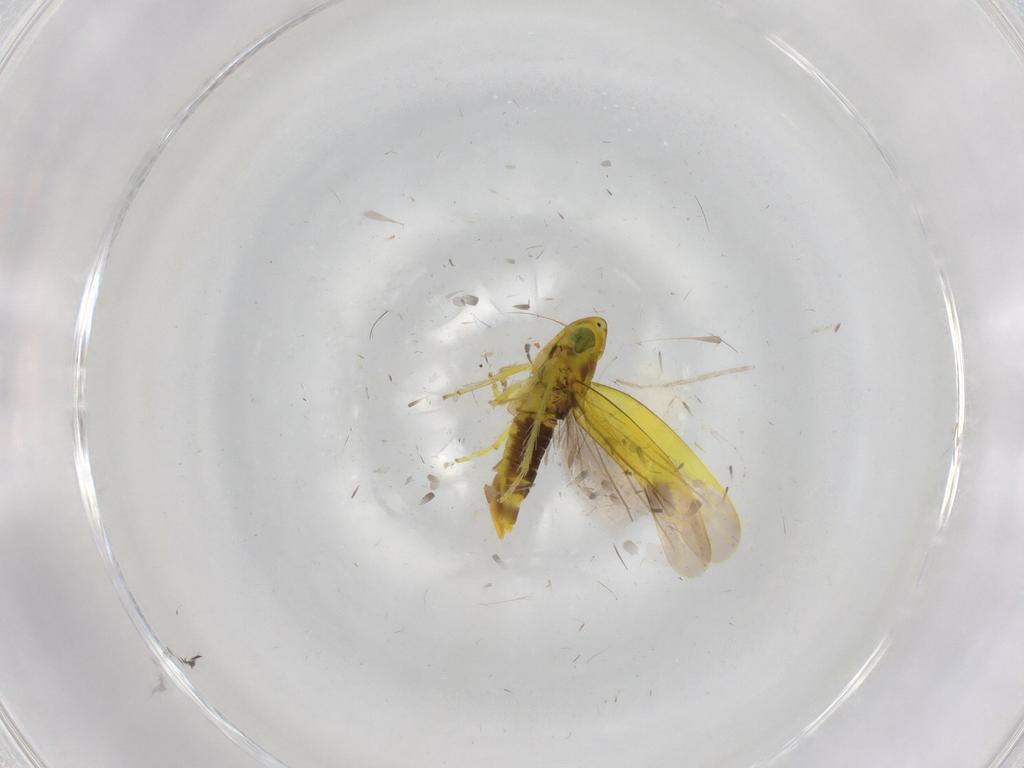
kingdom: Animalia
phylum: Arthropoda
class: Insecta
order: Hemiptera
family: Cicadellidae
